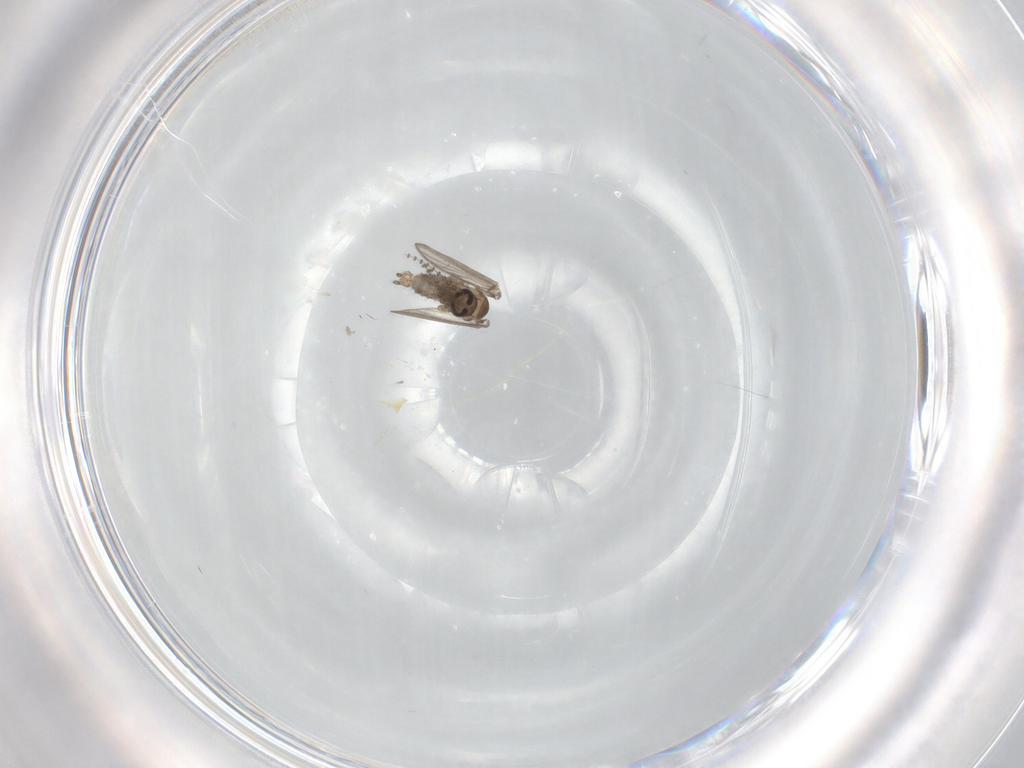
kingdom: Animalia
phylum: Arthropoda
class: Insecta
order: Diptera
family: Psychodidae
